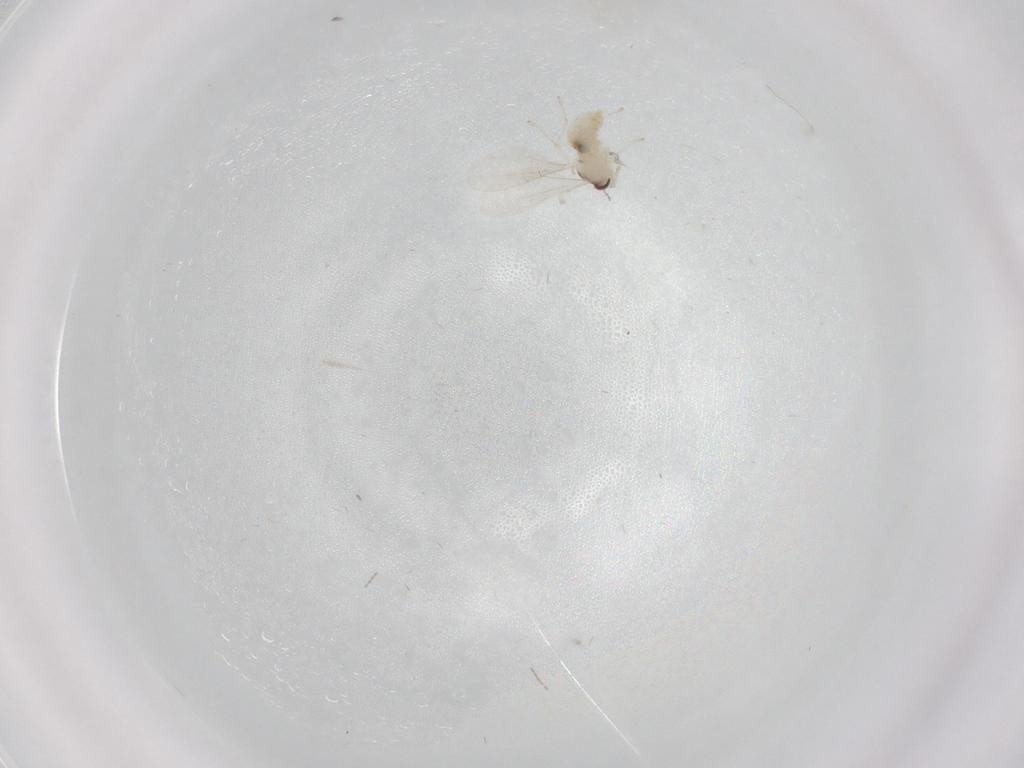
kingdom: Animalia
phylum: Arthropoda
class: Insecta
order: Diptera
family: Cecidomyiidae
